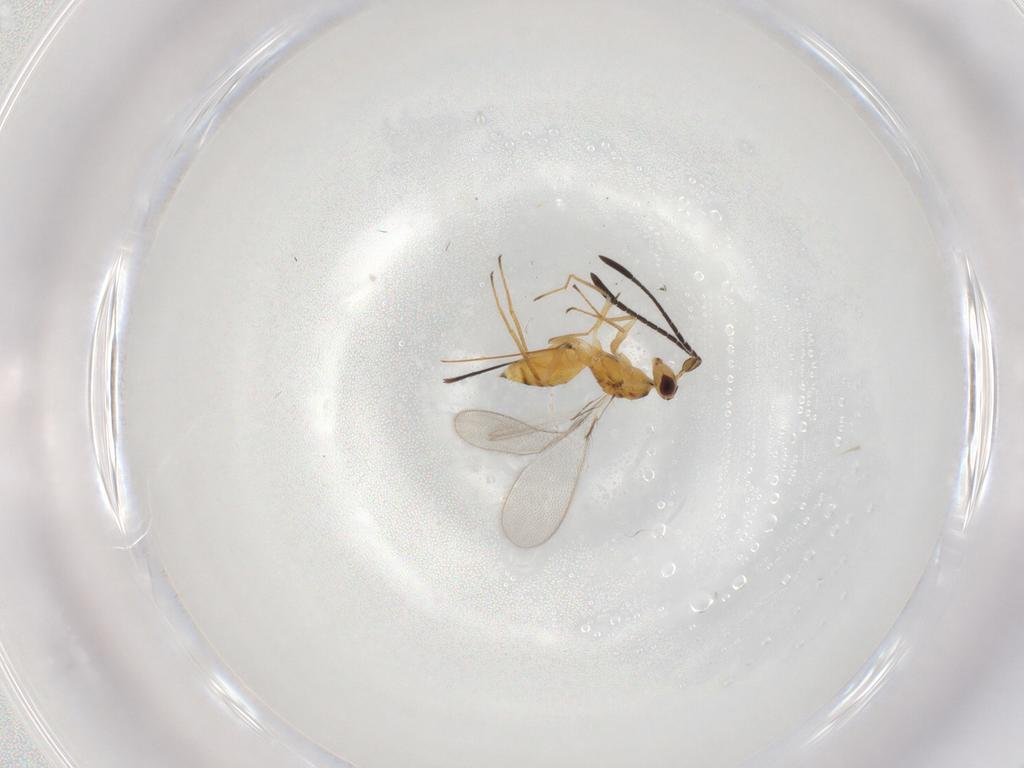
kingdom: Animalia
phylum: Arthropoda
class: Insecta
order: Hymenoptera
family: Mymaridae
